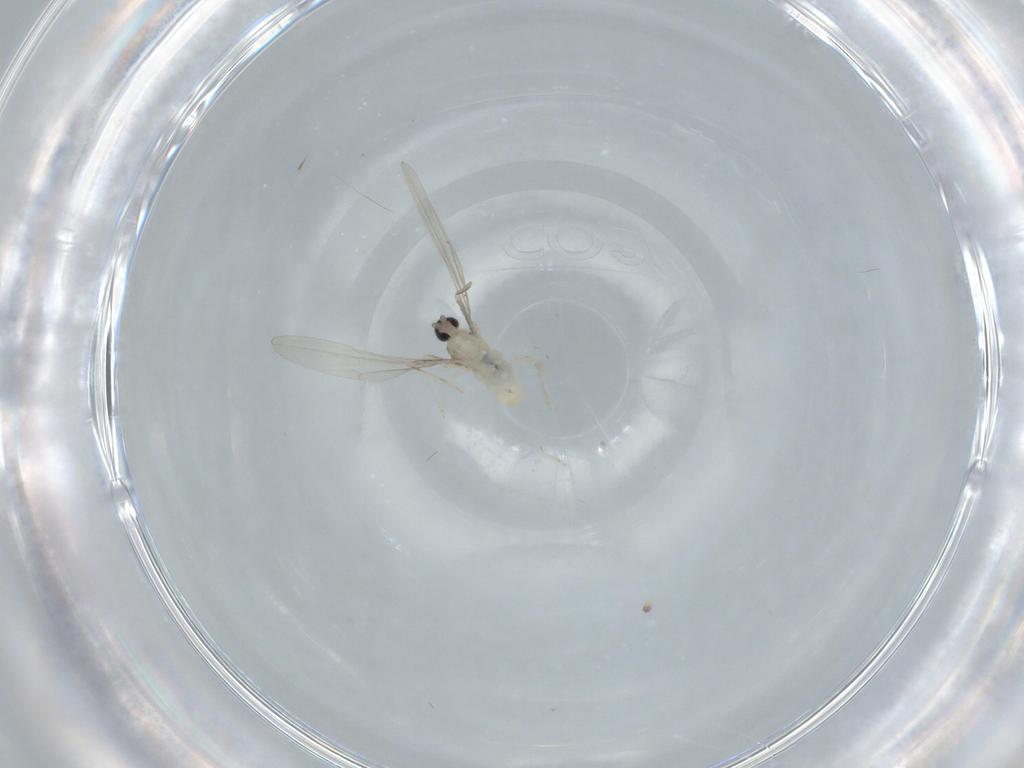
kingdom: Animalia
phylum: Arthropoda
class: Insecta
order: Diptera
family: Cecidomyiidae
